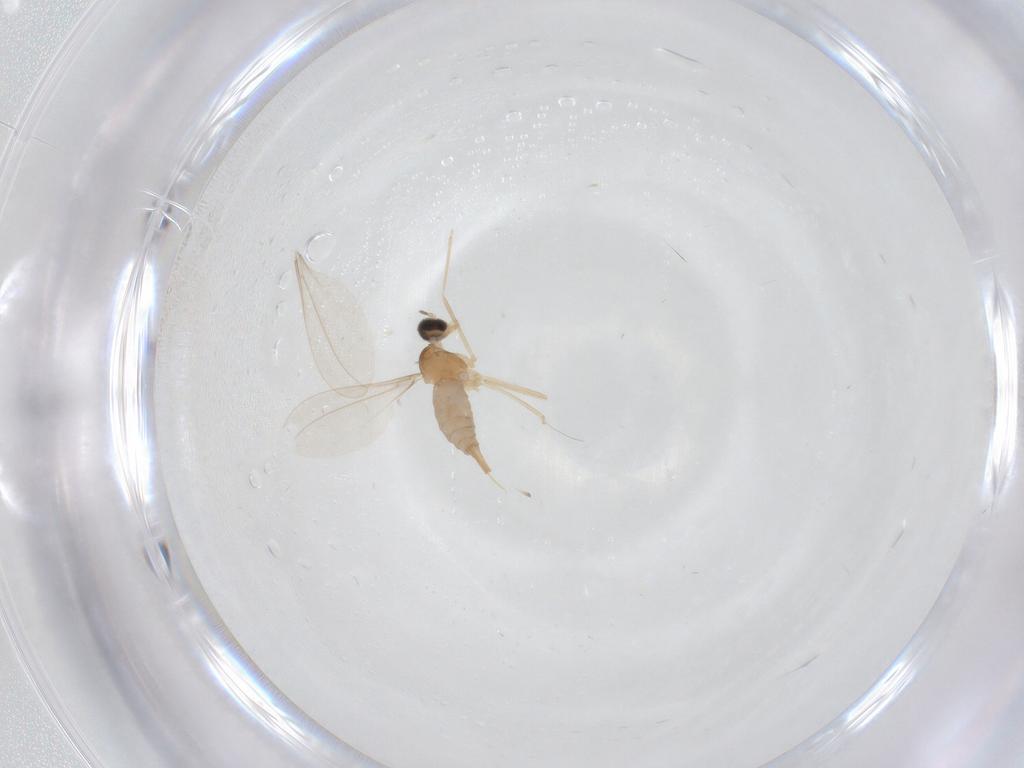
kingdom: Animalia
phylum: Arthropoda
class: Insecta
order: Diptera
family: Cecidomyiidae
